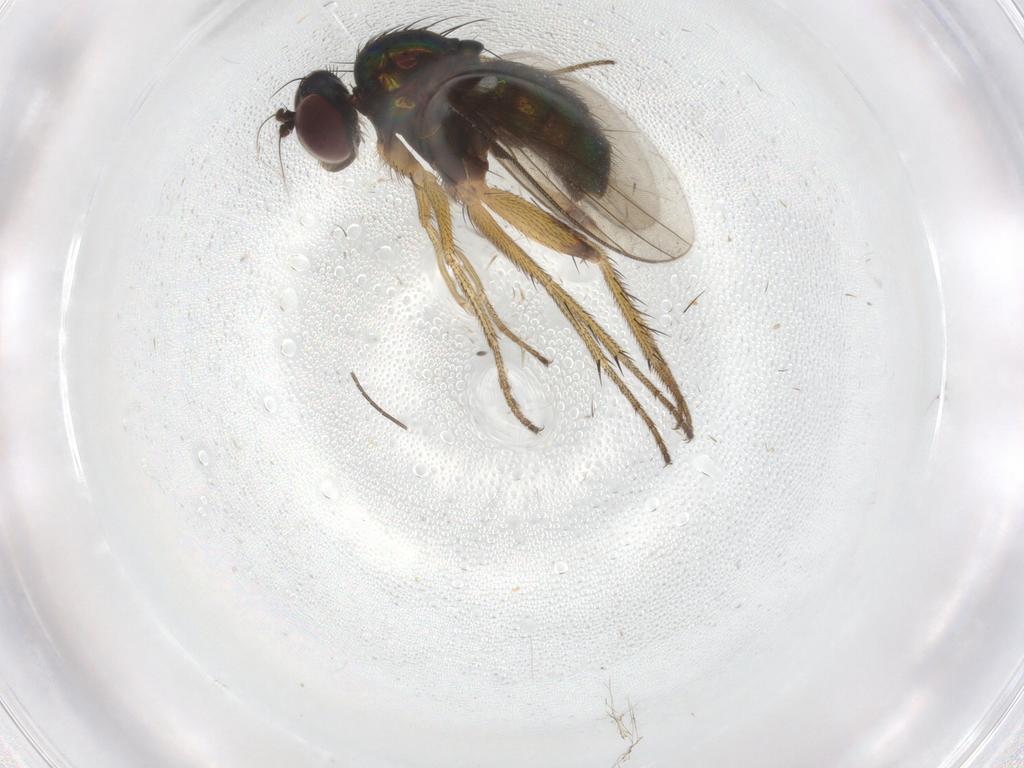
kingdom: Animalia
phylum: Arthropoda
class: Insecta
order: Diptera
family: Dolichopodidae
